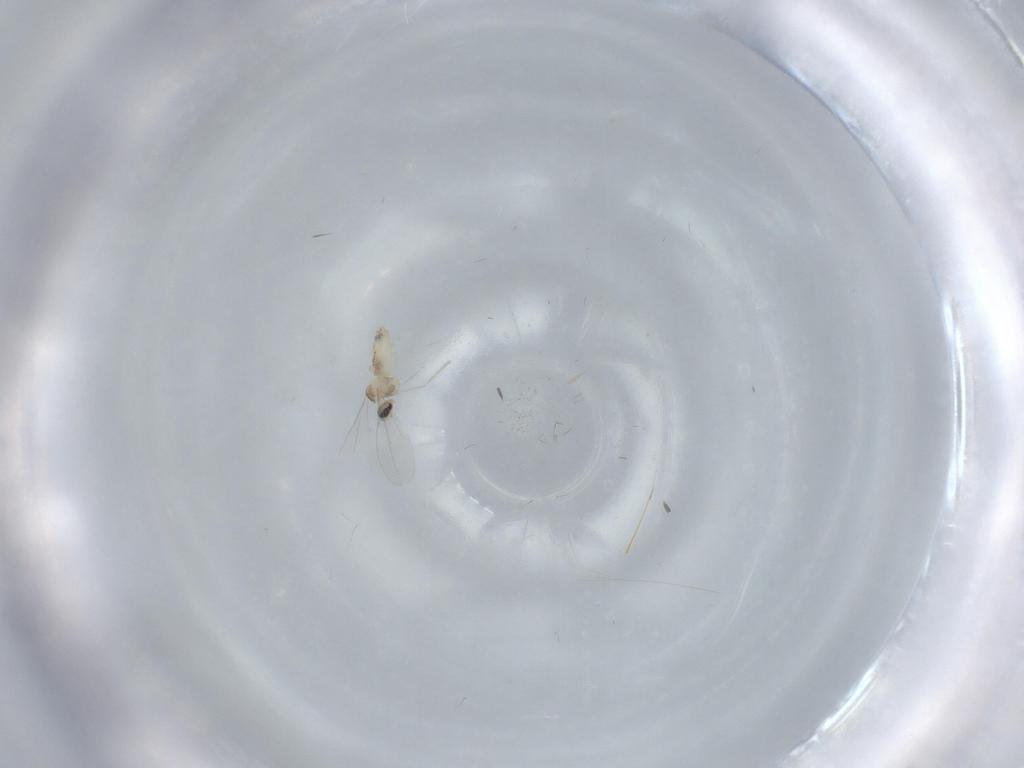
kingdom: Animalia
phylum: Arthropoda
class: Insecta
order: Diptera
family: Cecidomyiidae
